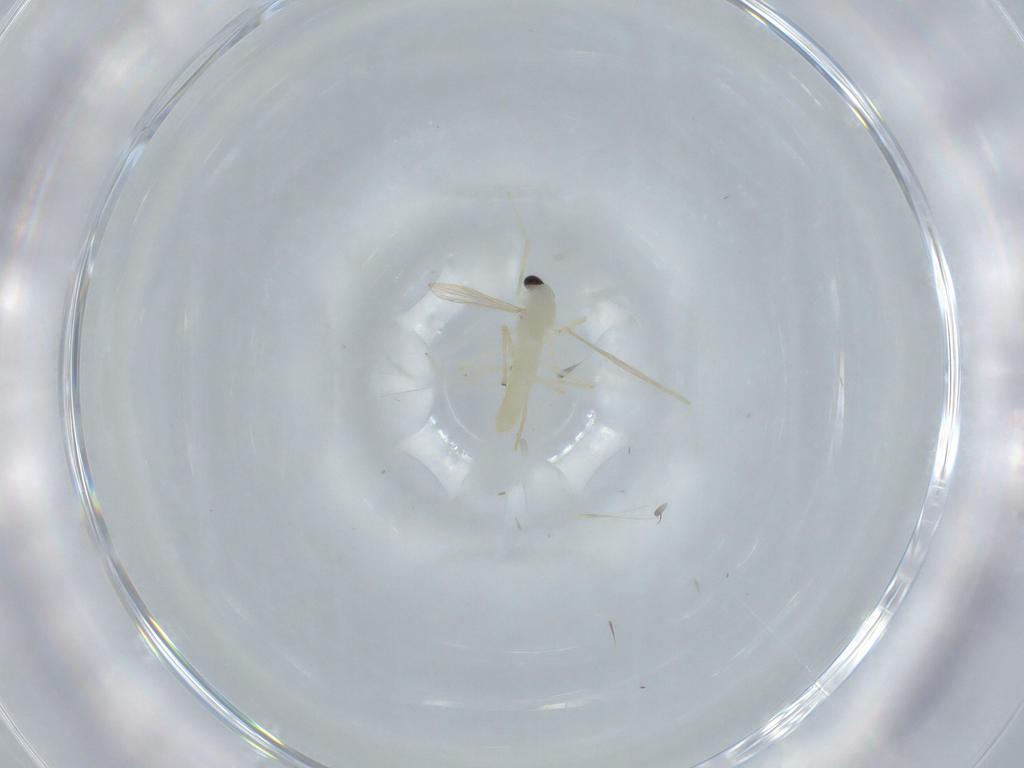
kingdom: Animalia
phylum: Arthropoda
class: Insecta
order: Diptera
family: Chironomidae
